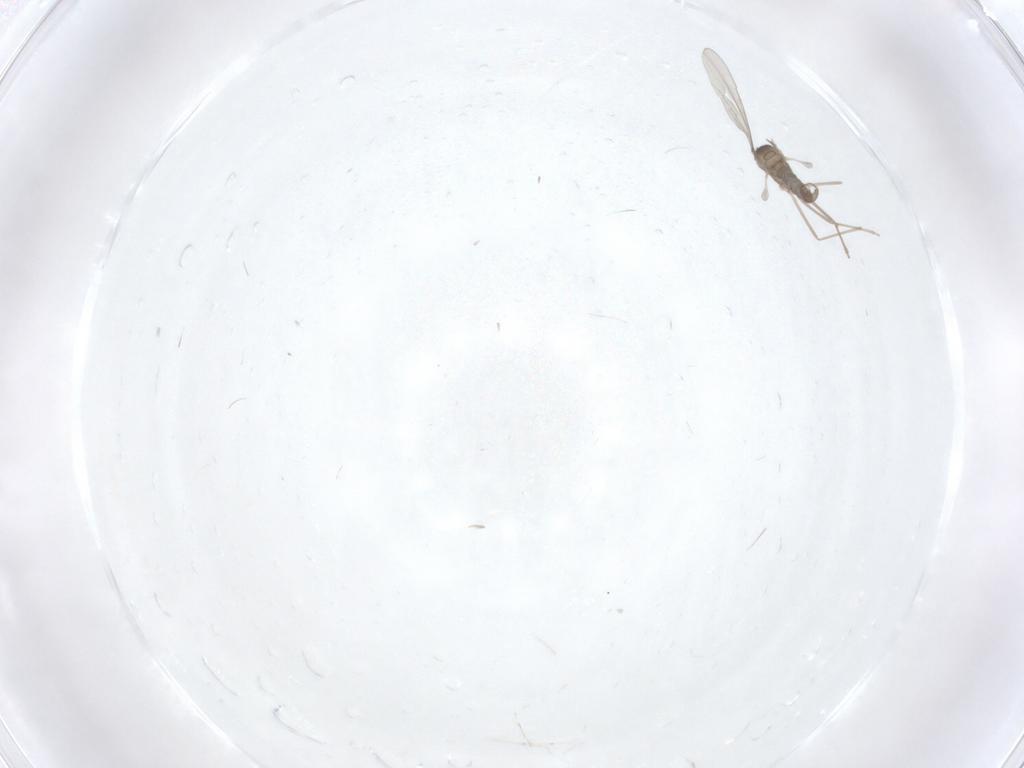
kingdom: Animalia
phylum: Arthropoda
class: Insecta
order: Diptera
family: Cecidomyiidae
